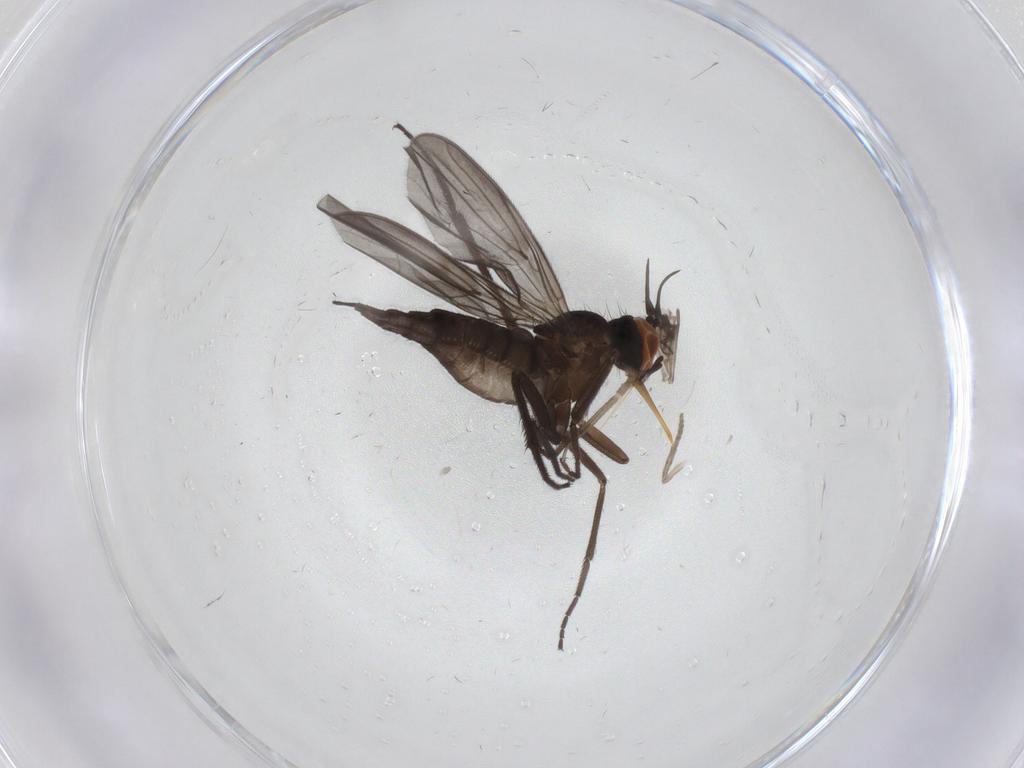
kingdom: Animalia
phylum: Arthropoda
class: Insecta
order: Diptera
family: Empididae
